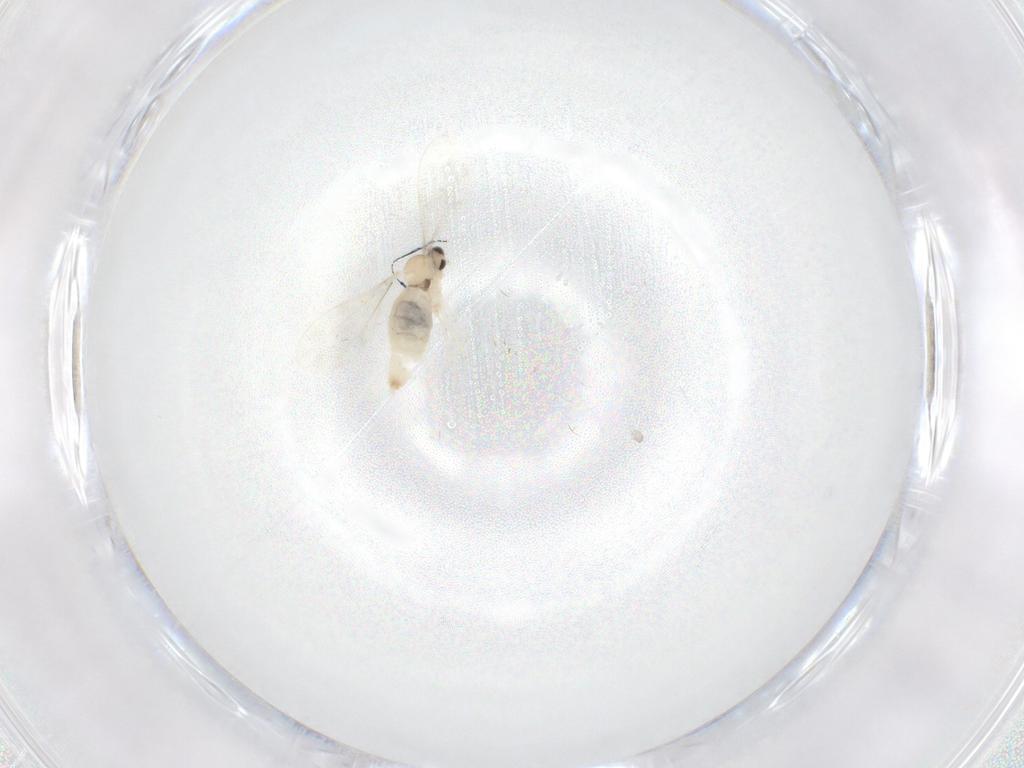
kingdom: Animalia
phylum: Arthropoda
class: Insecta
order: Diptera
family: Cecidomyiidae
